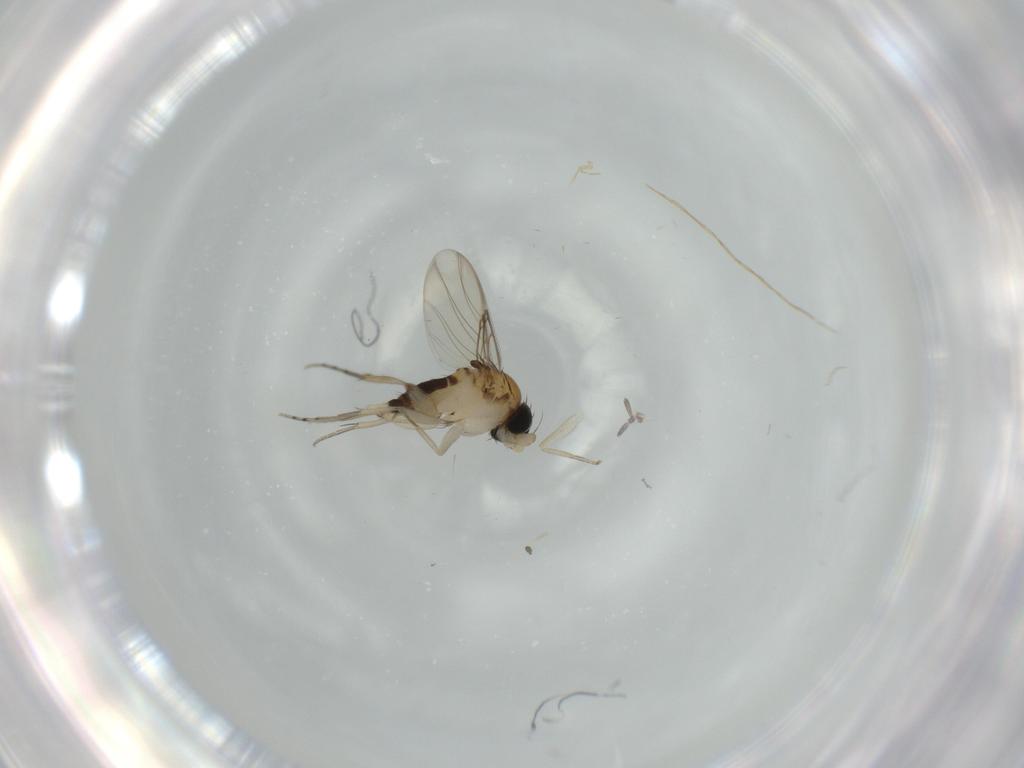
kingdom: Animalia
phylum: Arthropoda
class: Insecta
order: Diptera
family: Phoridae
